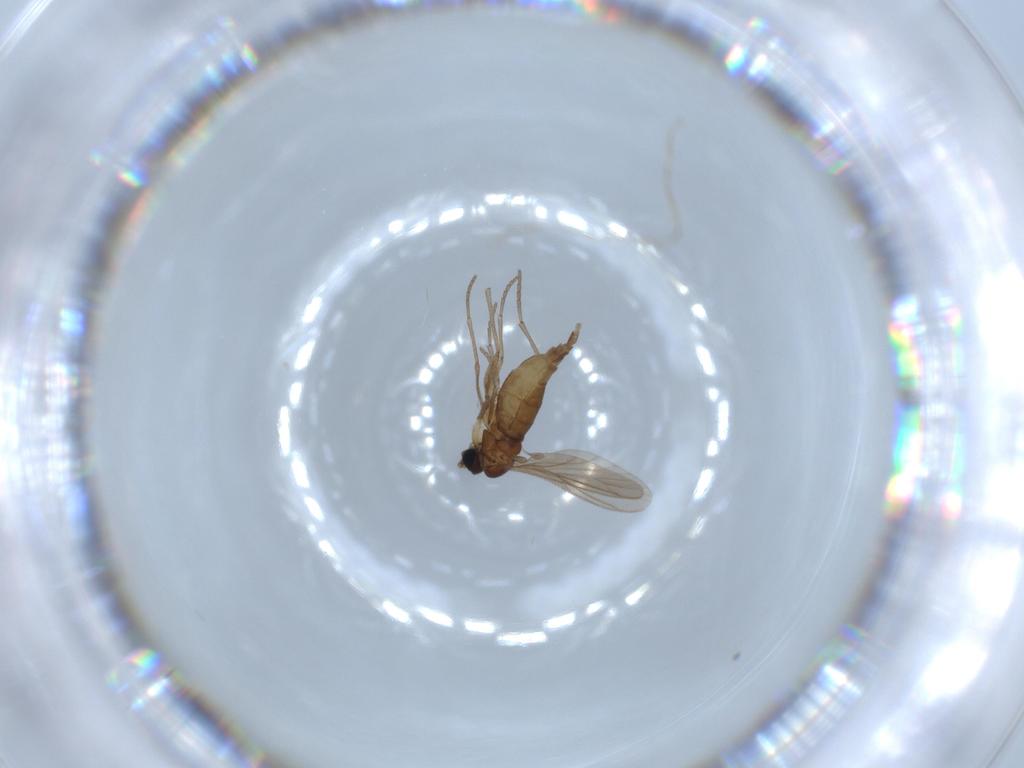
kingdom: Animalia
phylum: Arthropoda
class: Insecta
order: Diptera
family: Sciaridae
